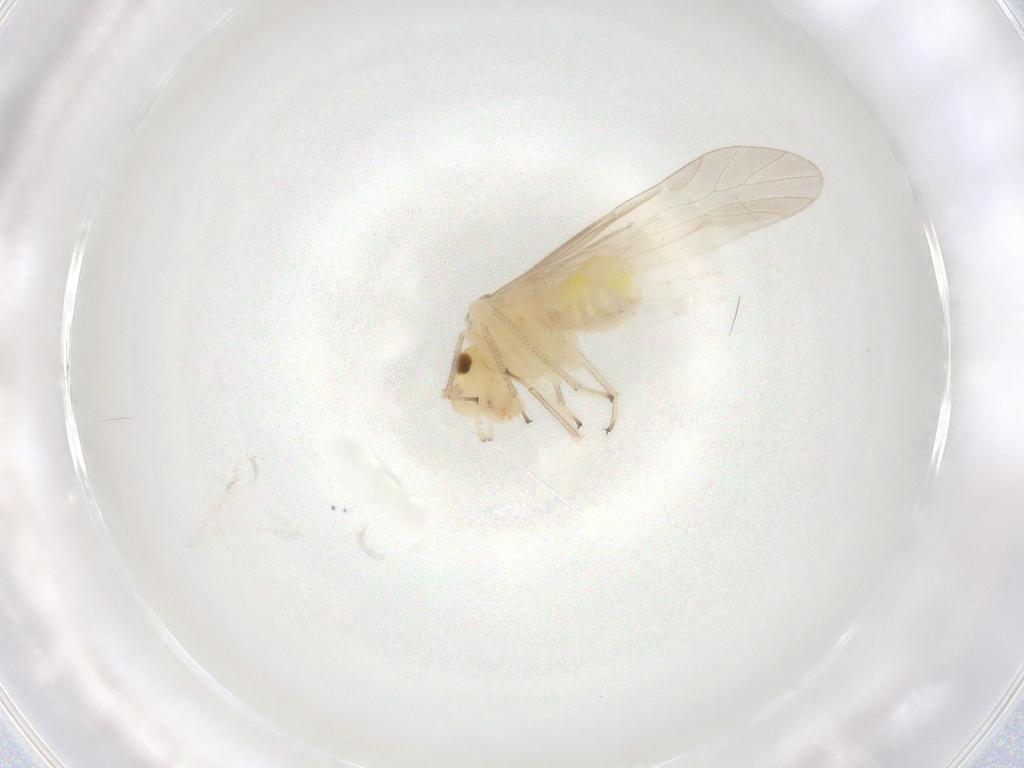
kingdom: Animalia
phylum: Arthropoda
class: Insecta
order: Psocodea
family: Caeciliusidae
